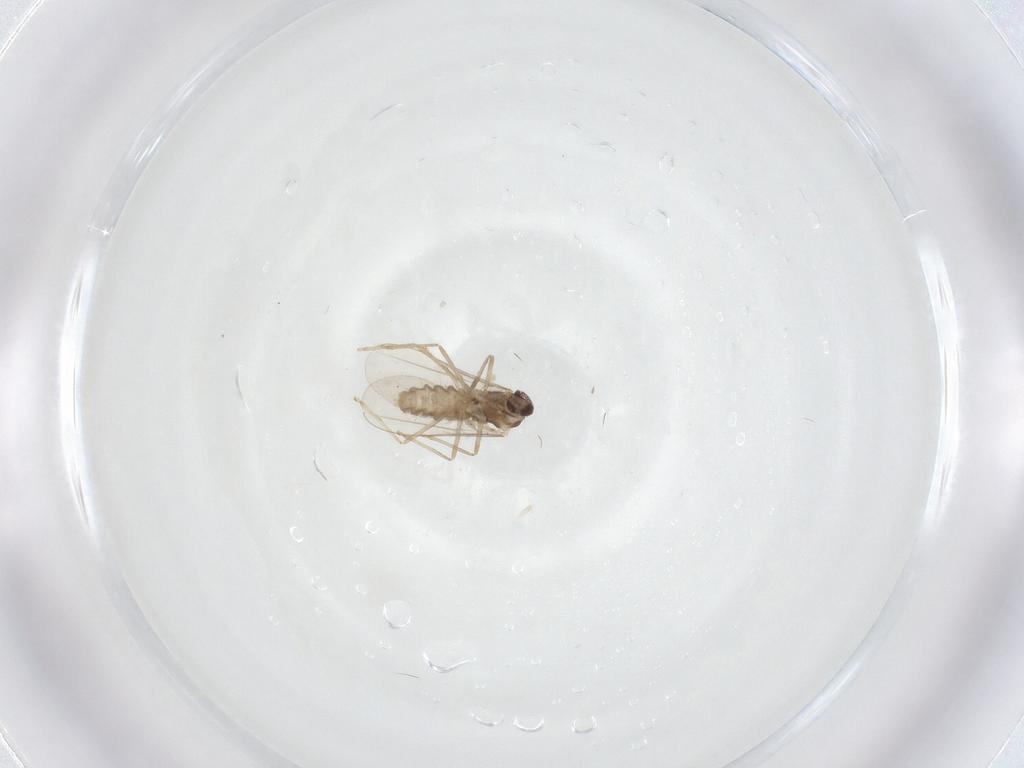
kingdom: Animalia
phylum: Arthropoda
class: Insecta
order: Diptera
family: Cecidomyiidae
